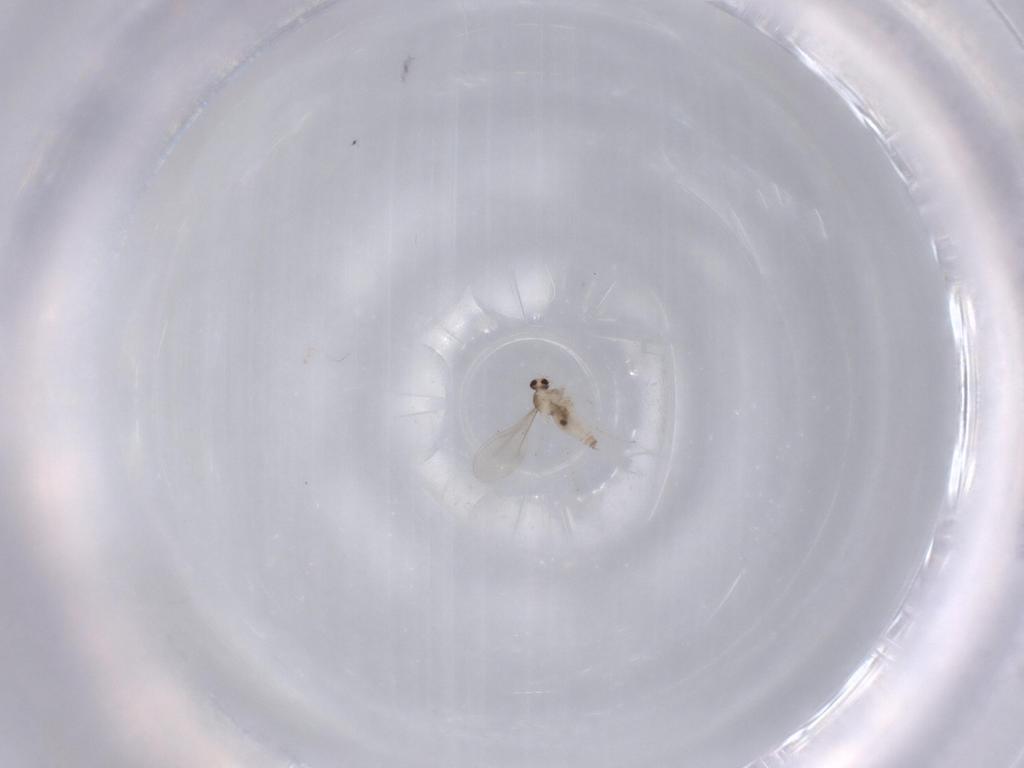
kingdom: Animalia
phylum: Arthropoda
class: Insecta
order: Diptera
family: Cecidomyiidae
